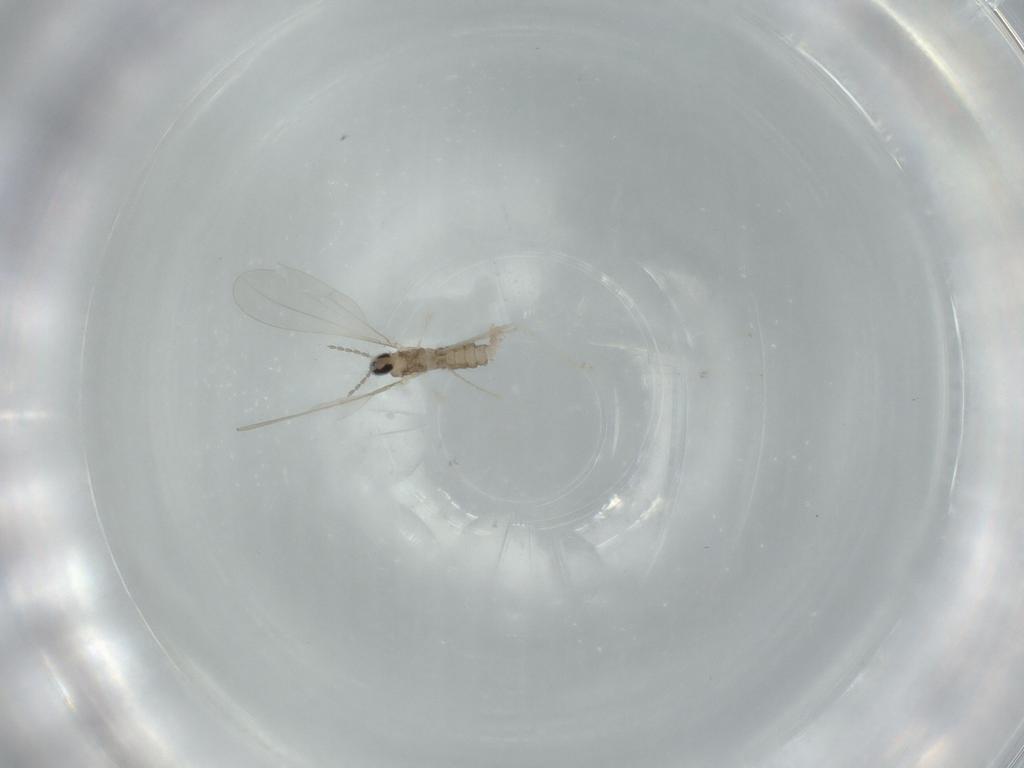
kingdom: Animalia
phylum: Arthropoda
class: Insecta
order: Diptera
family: Cecidomyiidae
